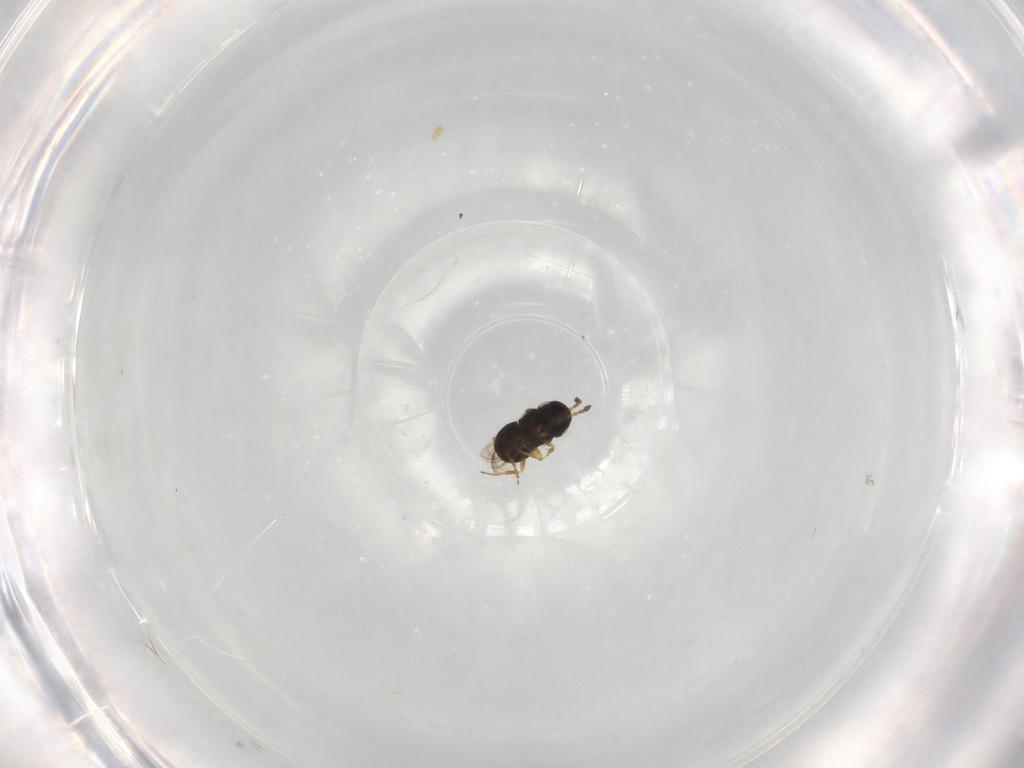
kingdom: Animalia
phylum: Arthropoda
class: Insecta
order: Hymenoptera
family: Scelionidae
